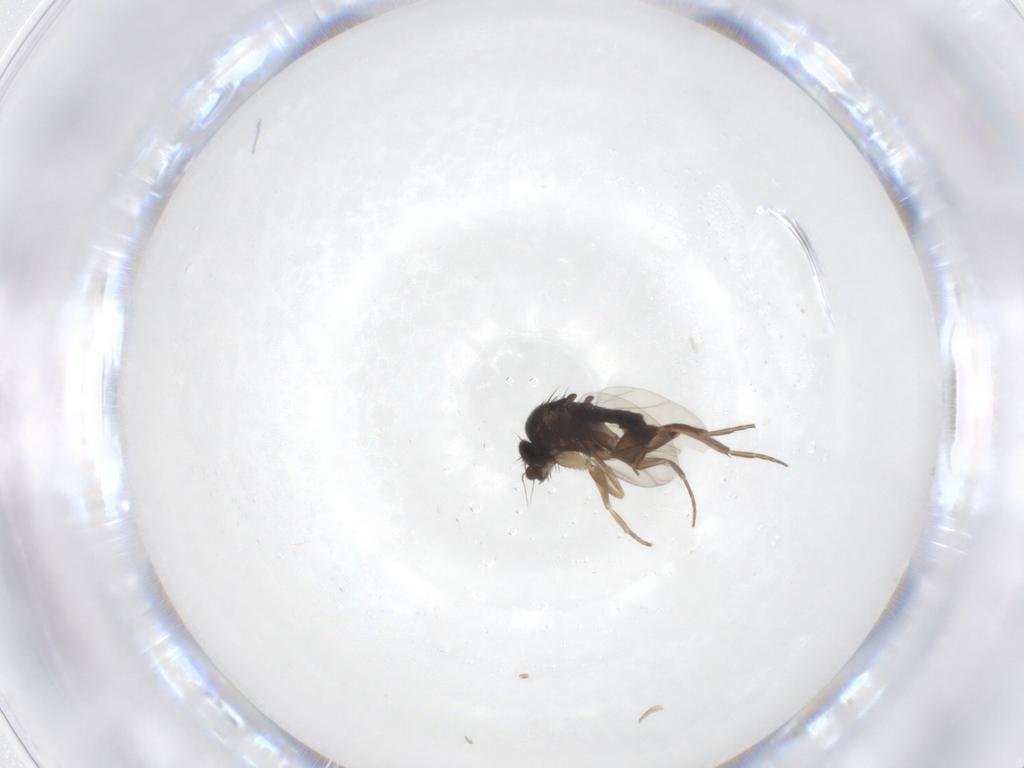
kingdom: Animalia
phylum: Arthropoda
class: Insecta
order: Diptera
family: Phoridae
